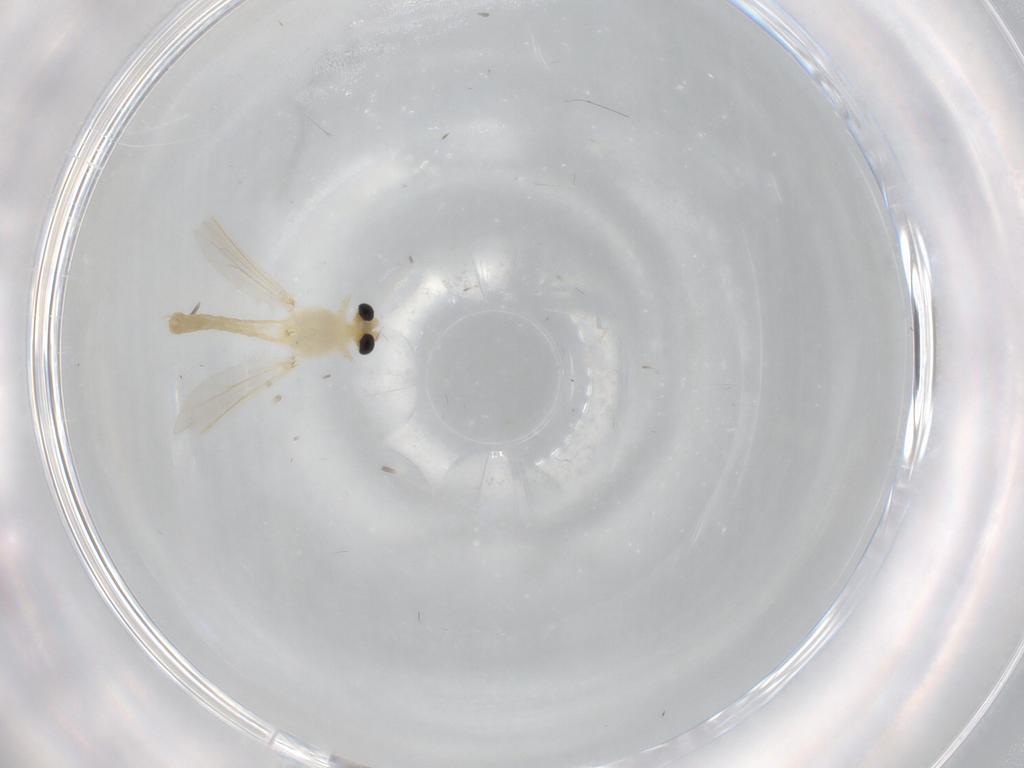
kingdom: Animalia
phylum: Arthropoda
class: Insecta
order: Diptera
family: Chironomidae
